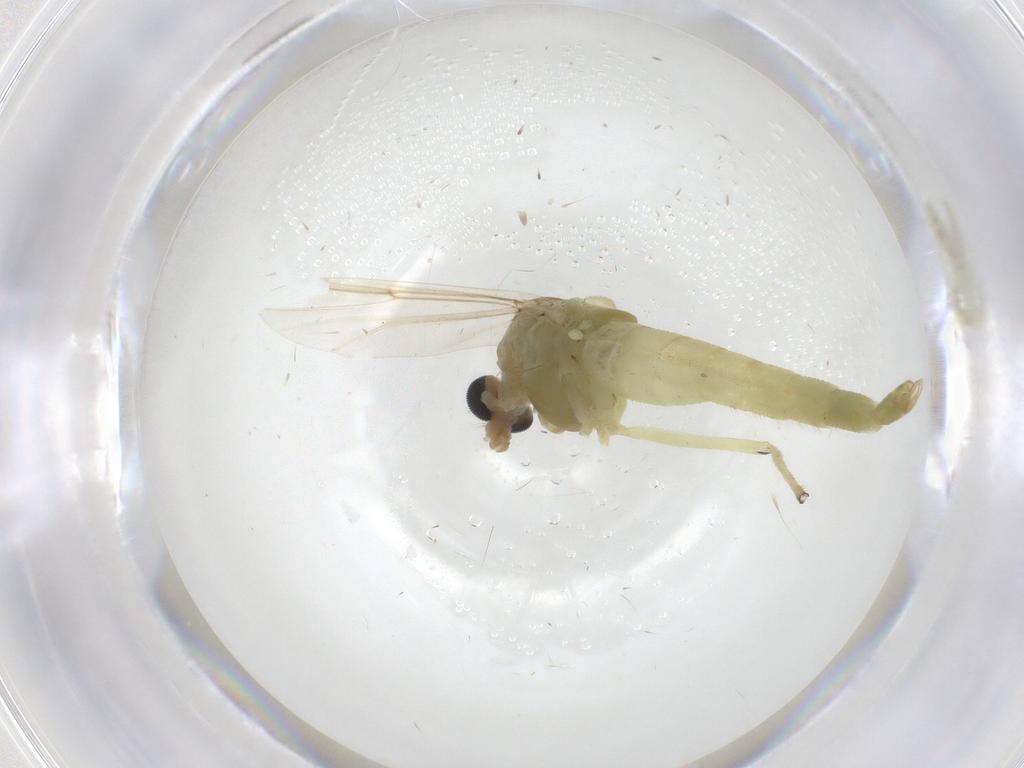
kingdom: Animalia
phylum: Arthropoda
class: Insecta
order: Diptera
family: Chironomidae
